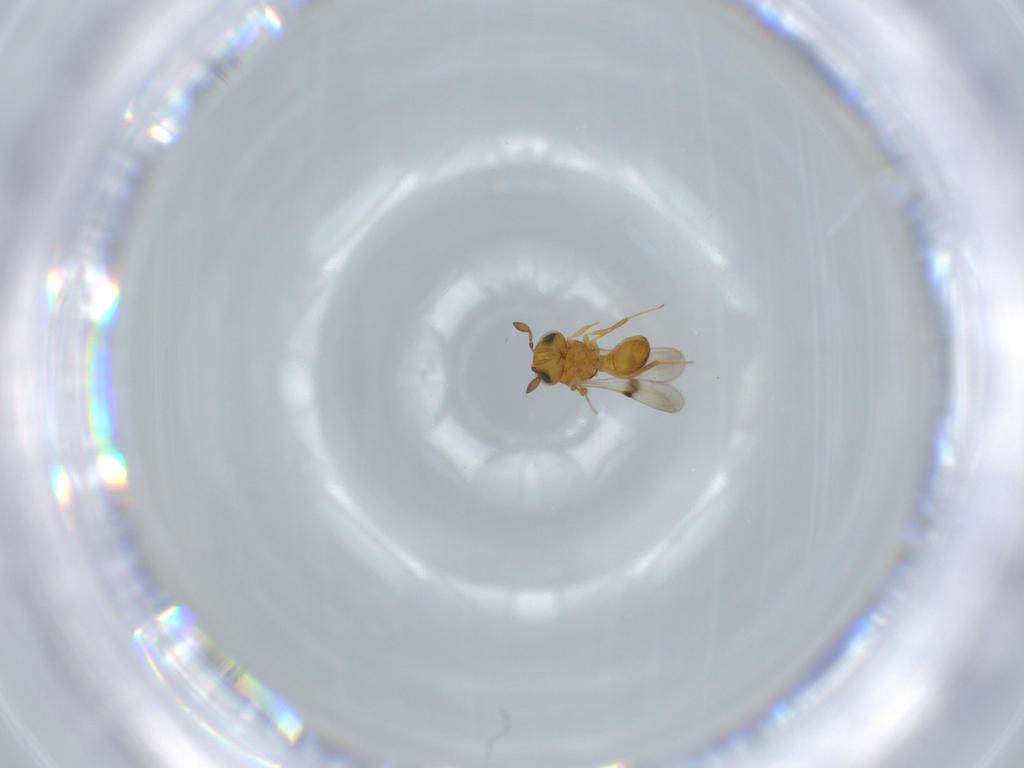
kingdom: Animalia
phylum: Arthropoda
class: Insecta
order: Hymenoptera
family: Scelionidae
